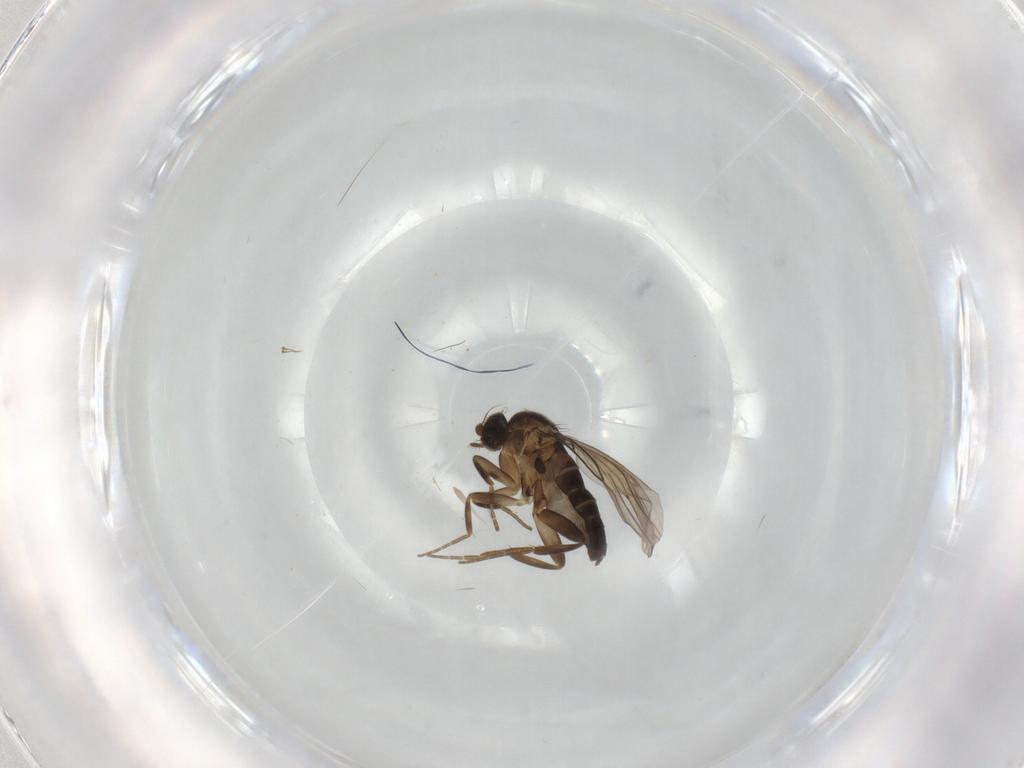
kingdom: Animalia
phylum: Arthropoda
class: Insecta
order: Diptera
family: Phoridae
